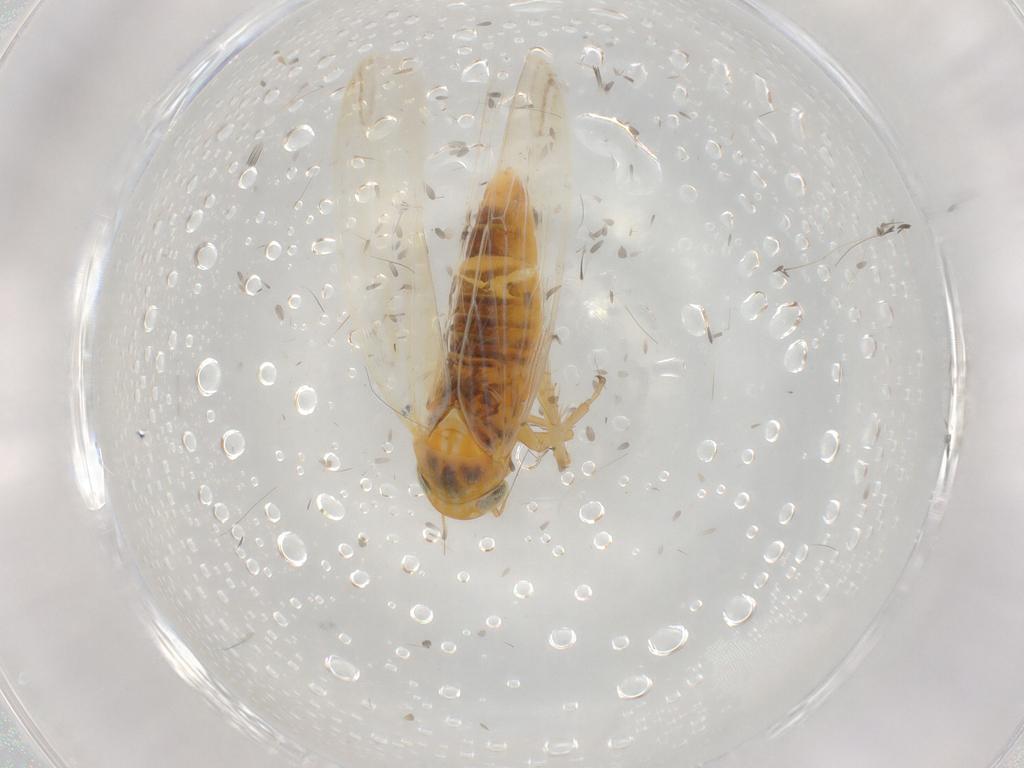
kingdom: Animalia
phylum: Arthropoda
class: Insecta
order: Hemiptera
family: Cicadellidae
